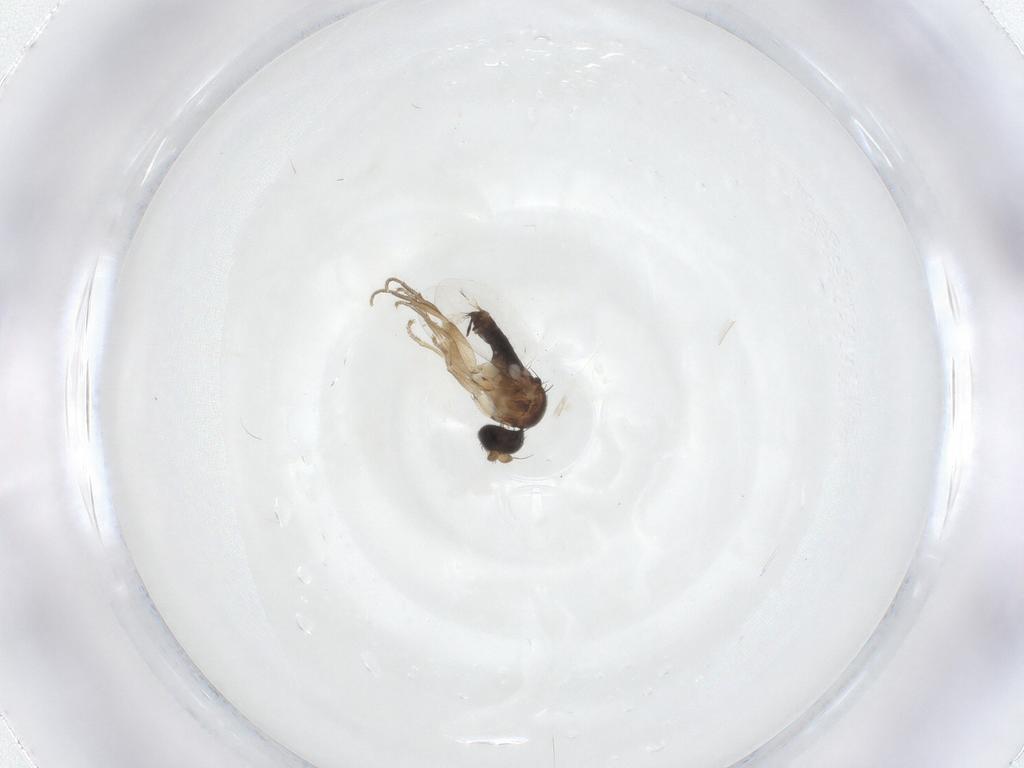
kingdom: Animalia
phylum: Arthropoda
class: Insecta
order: Diptera
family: Phoridae
